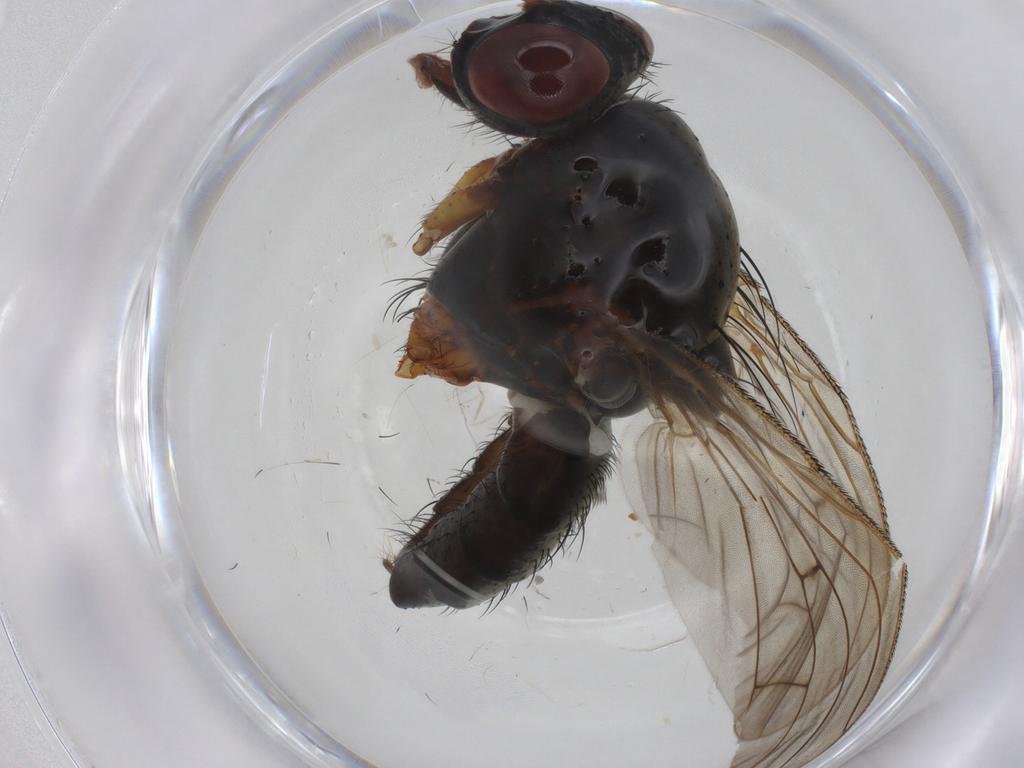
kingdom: Animalia
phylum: Arthropoda
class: Insecta
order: Diptera
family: Anthomyiidae
